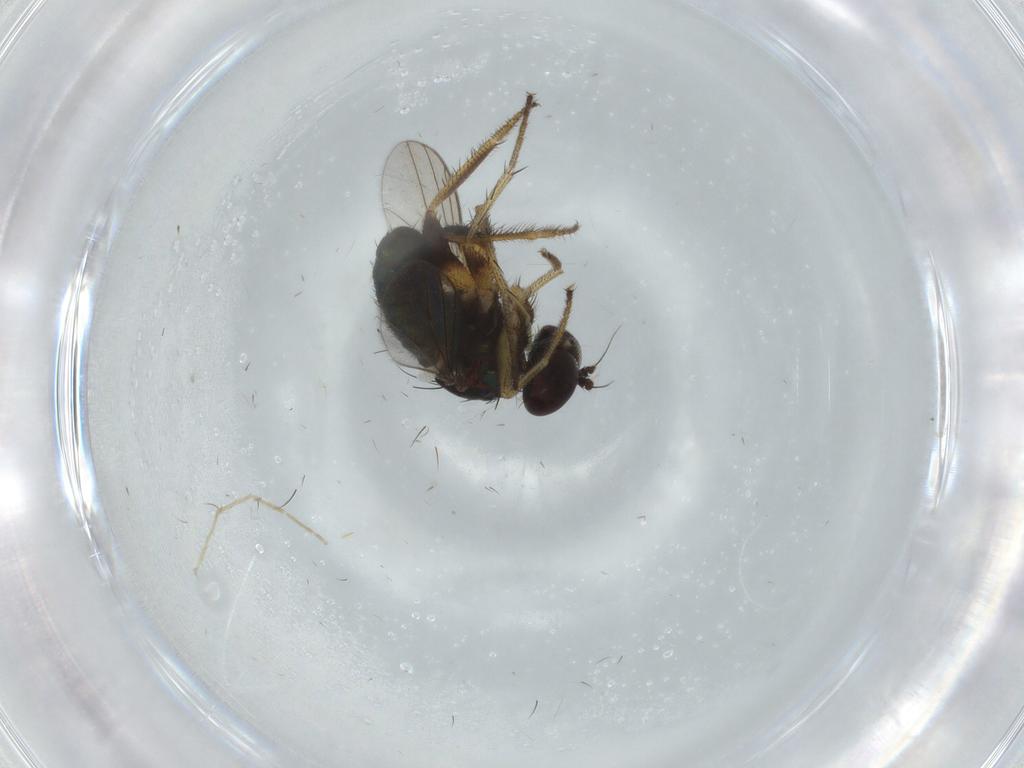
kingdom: Animalia
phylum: Arthropoda
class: Insecta
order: Diptera
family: Dolichopodidae
